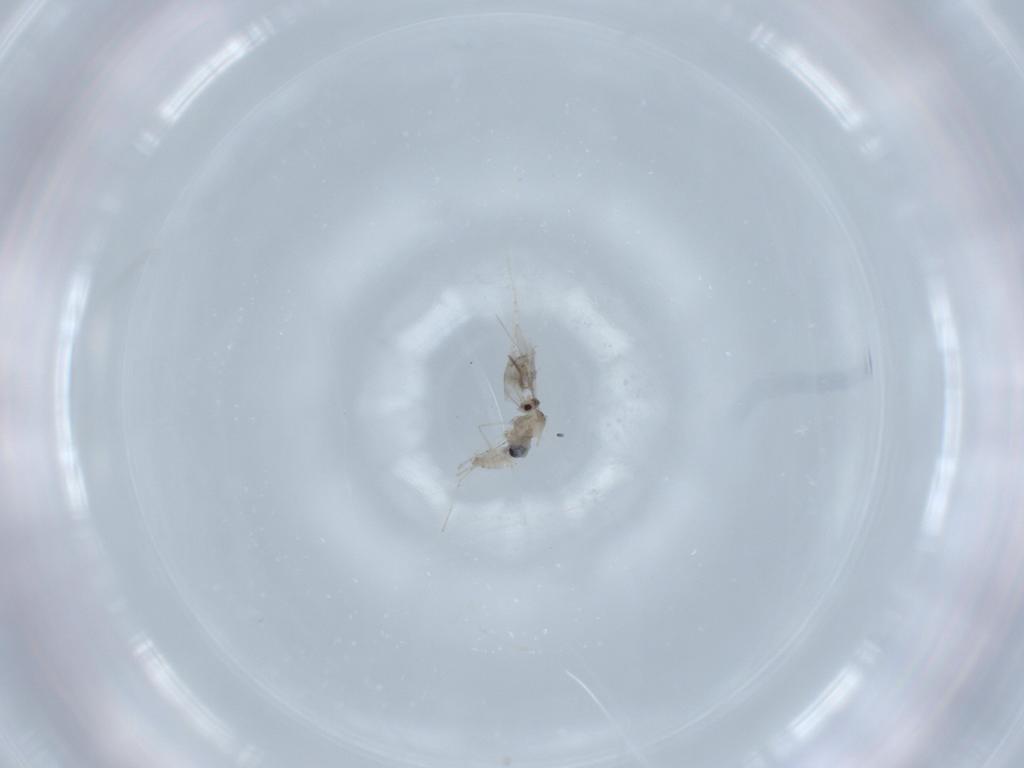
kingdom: Animalia
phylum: Arthropoda
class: Insecta
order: Diptera
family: Cecidomyiidae
